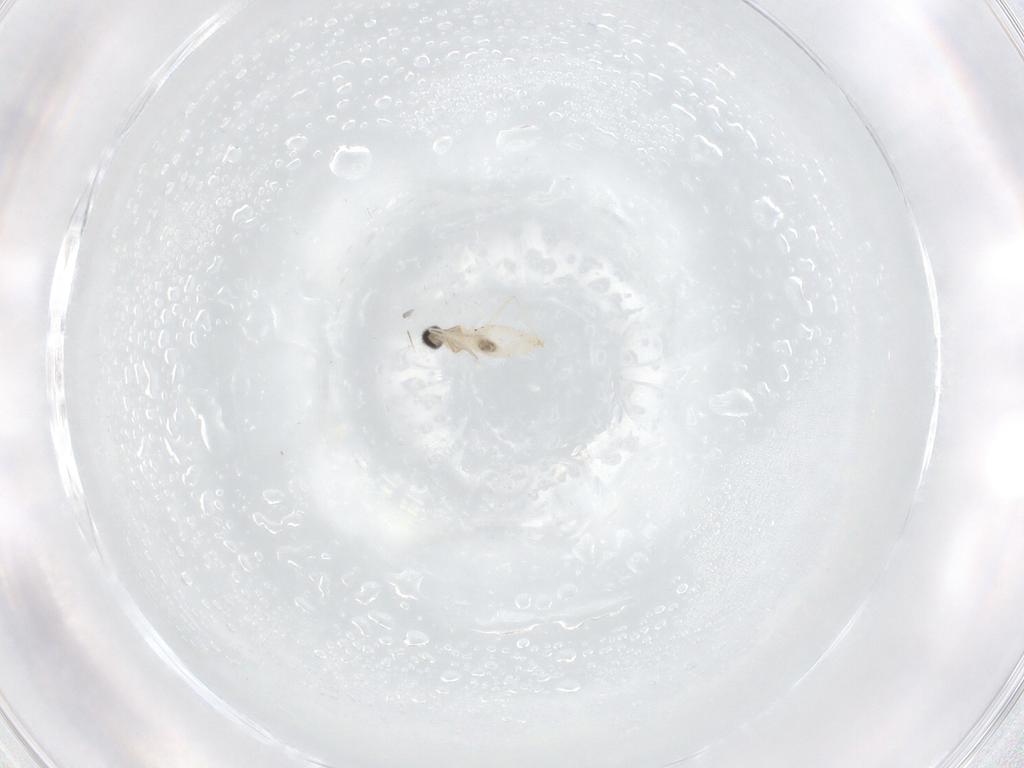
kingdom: Animalia
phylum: Arthropoda
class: Insecta
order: Diptera
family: Cecidomyiidae
